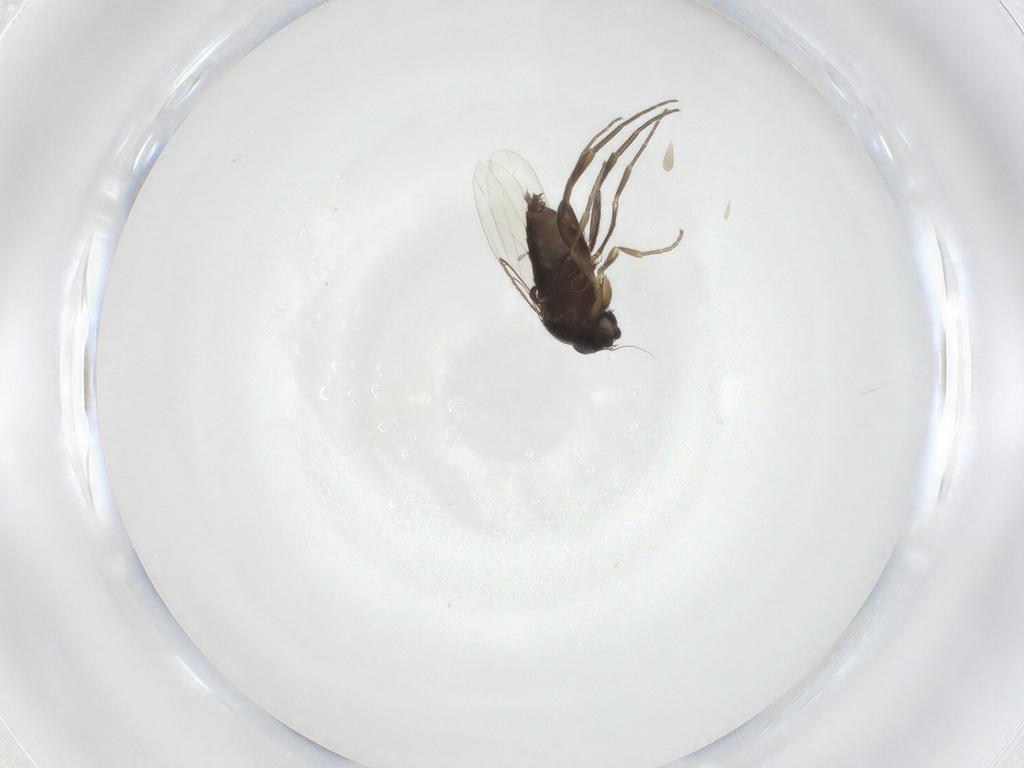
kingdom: Animalia
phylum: Arthropoda
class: Insecta
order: Diptera
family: Phoridae
